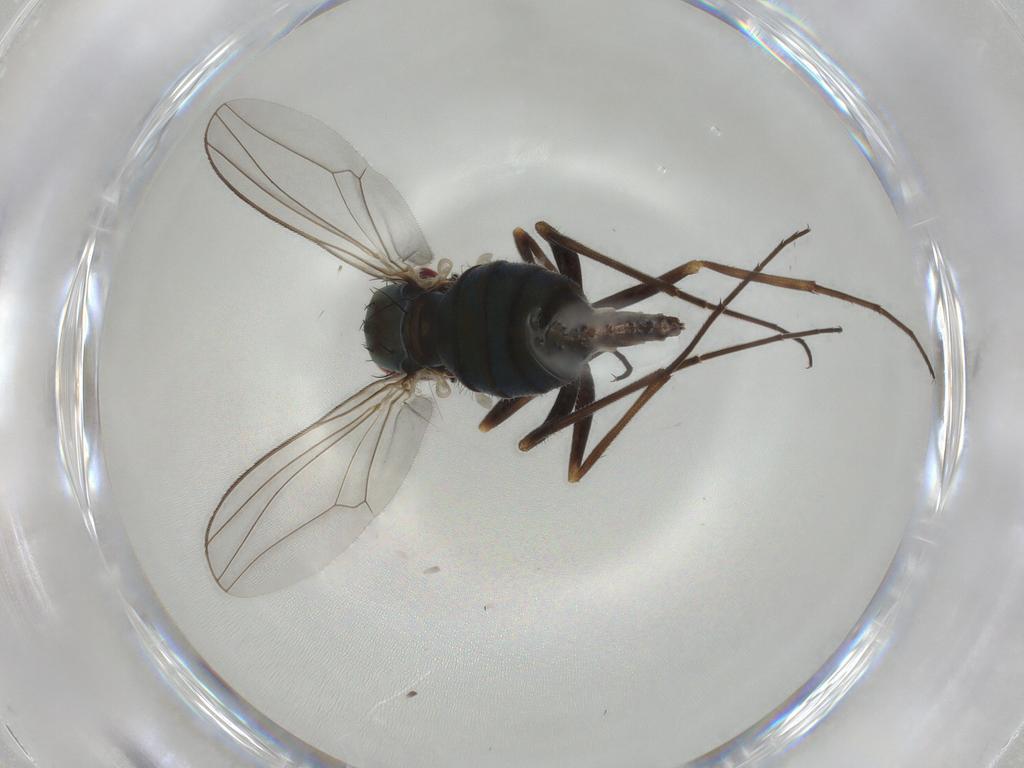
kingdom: Animalia
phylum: Arthropoda
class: Insecta
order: Diptera
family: Dolichopodidae
